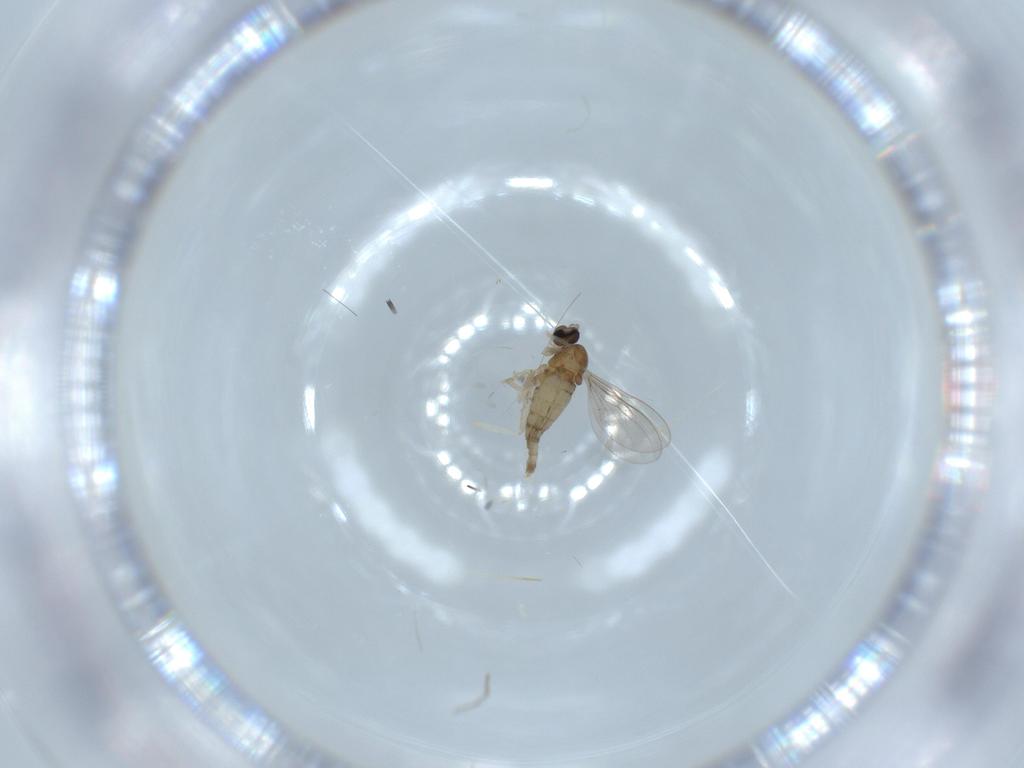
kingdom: Animalia
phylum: Arthropoda
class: Insecta
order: Diptera
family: Cecidomyiidae
